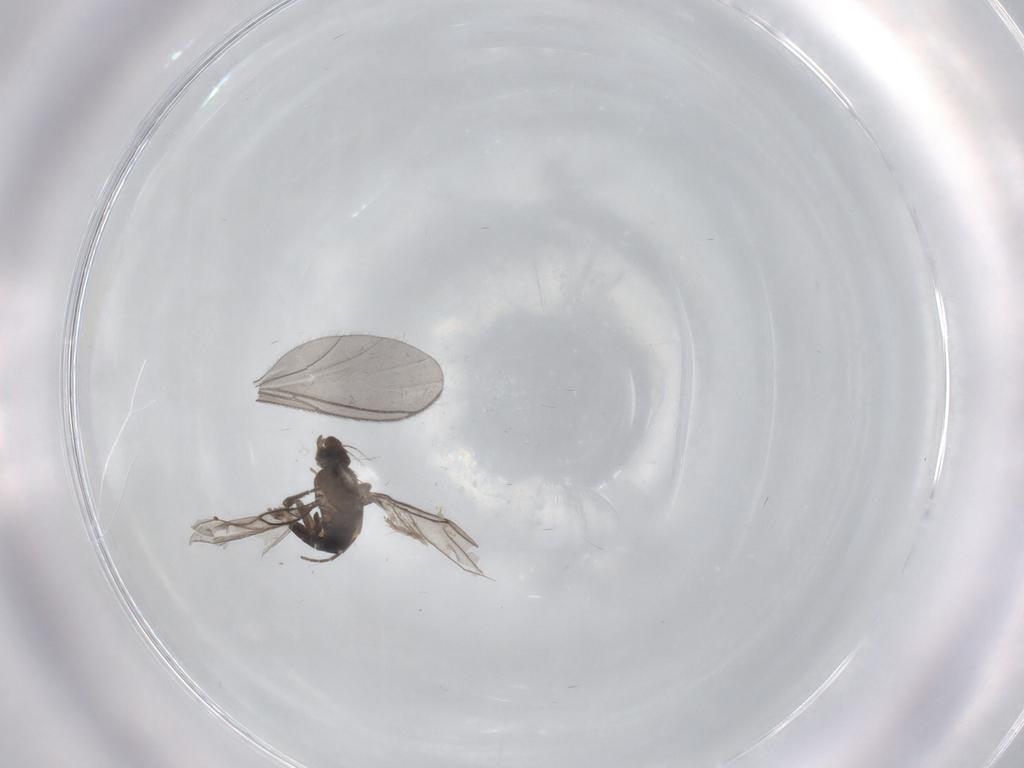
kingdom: Animalia
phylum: Arthropoda
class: Insecta
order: Diptera
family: Sciaridae
